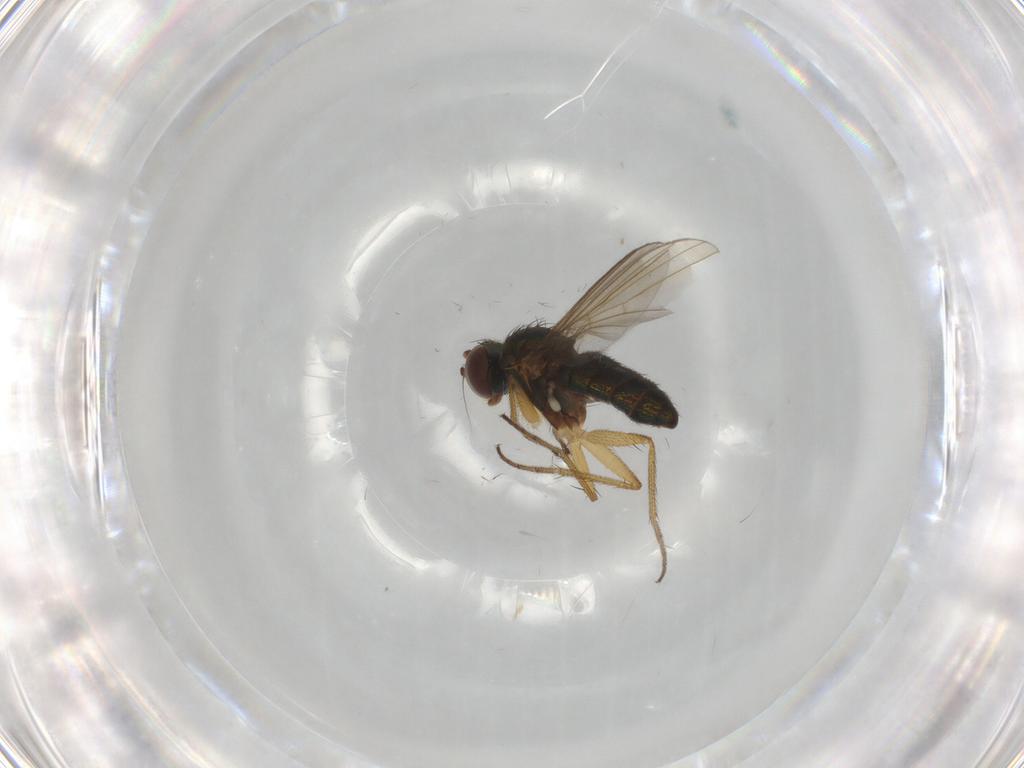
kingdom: Animalia
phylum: Arthropoda
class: Insecta
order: Diptera
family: Dolichopodidae
